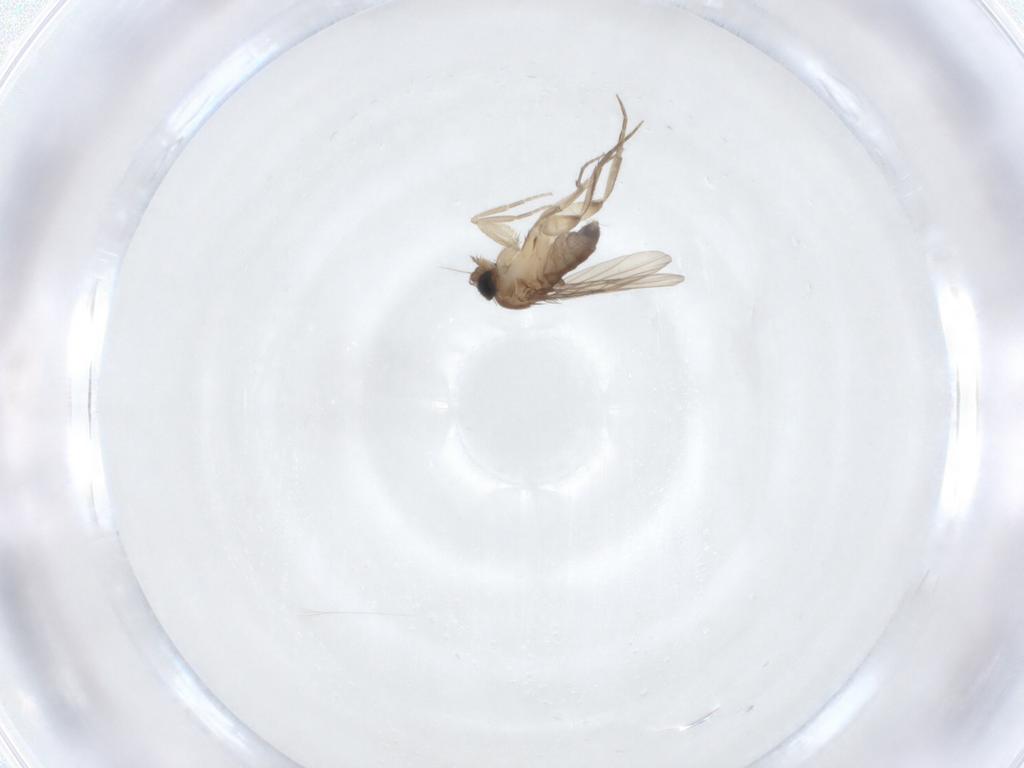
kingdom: Animalia
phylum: Arthropoda
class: Insecta
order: Diptera
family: Phoridae
